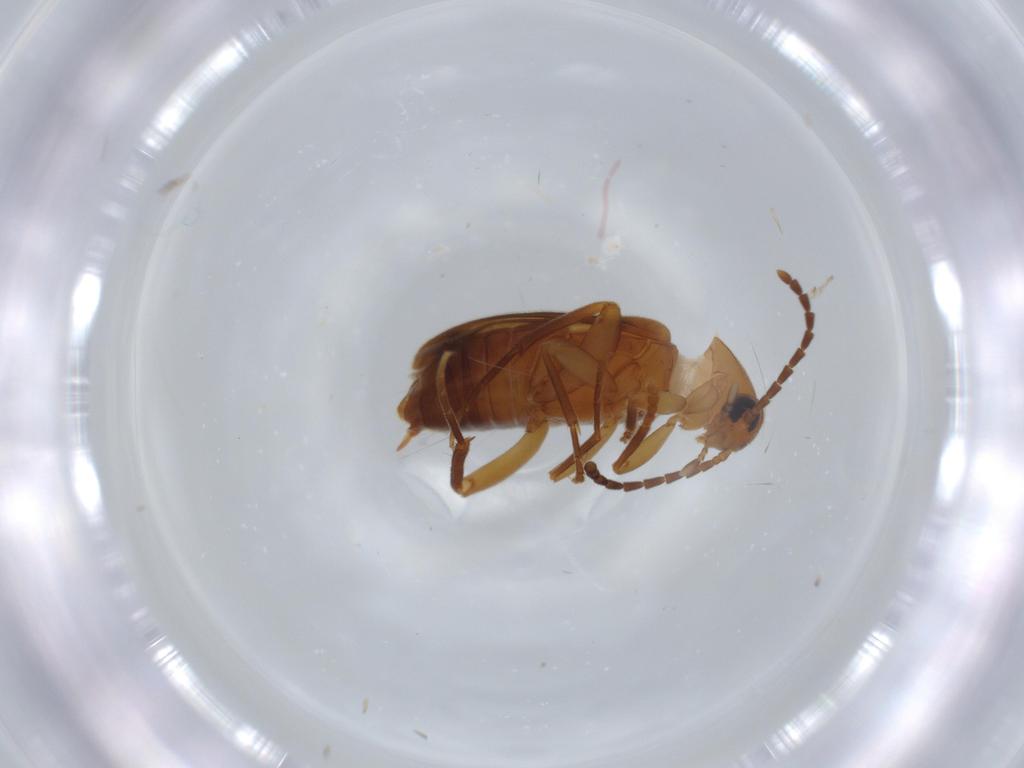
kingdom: Animalia
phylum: Arthropoda
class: Insecta
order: Coleoptera
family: Scraptiidae
